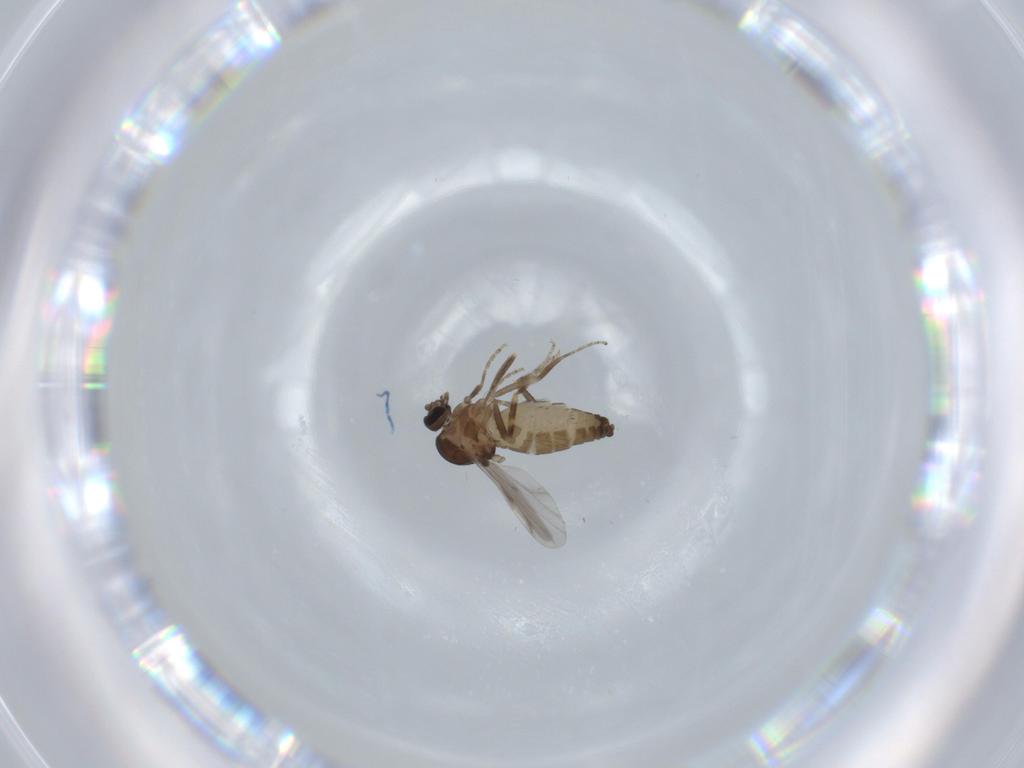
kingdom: Animalia
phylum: Arthropoda
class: Insecta
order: Diptera
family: Ceratopogonidae
